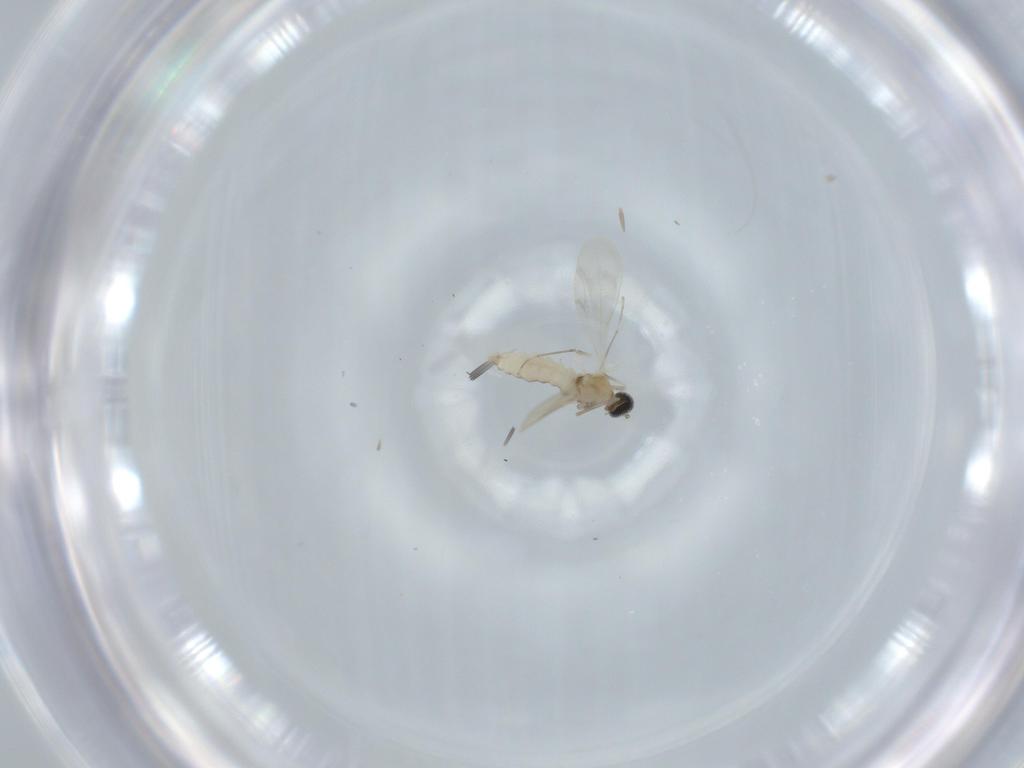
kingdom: Animalia
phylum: Arthropoda
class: Insecta
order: Diptera
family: Cecidomyiidae
